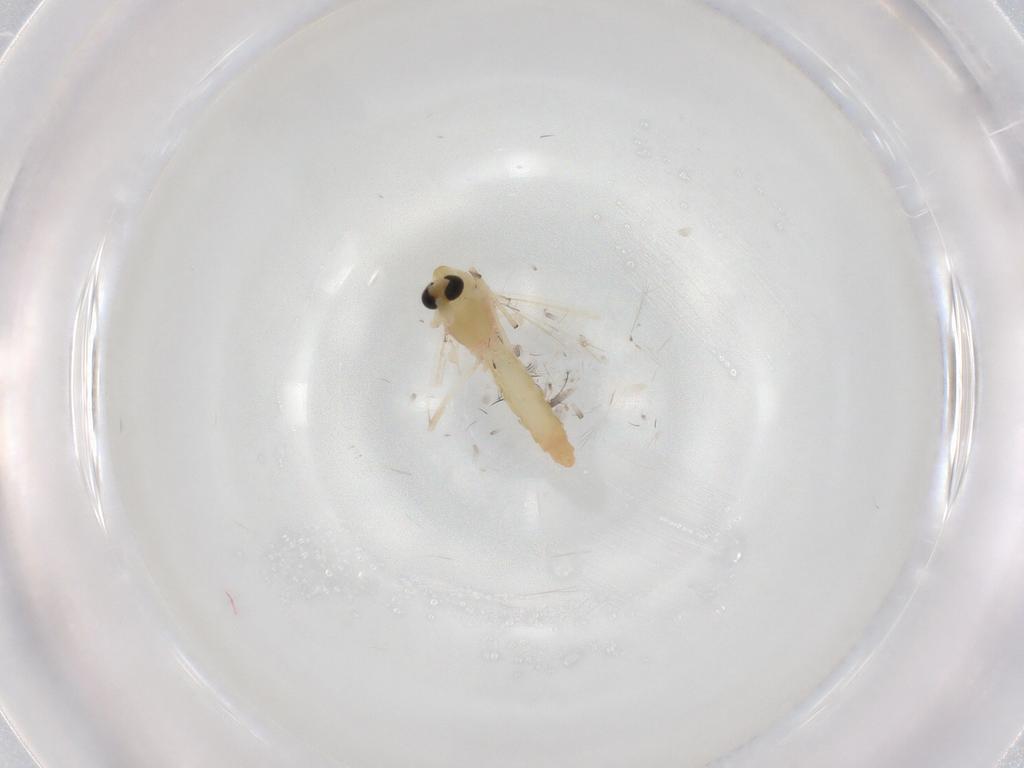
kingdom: Animalia
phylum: Arthropoda
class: Insecta
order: Diptera
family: Chironomidae
